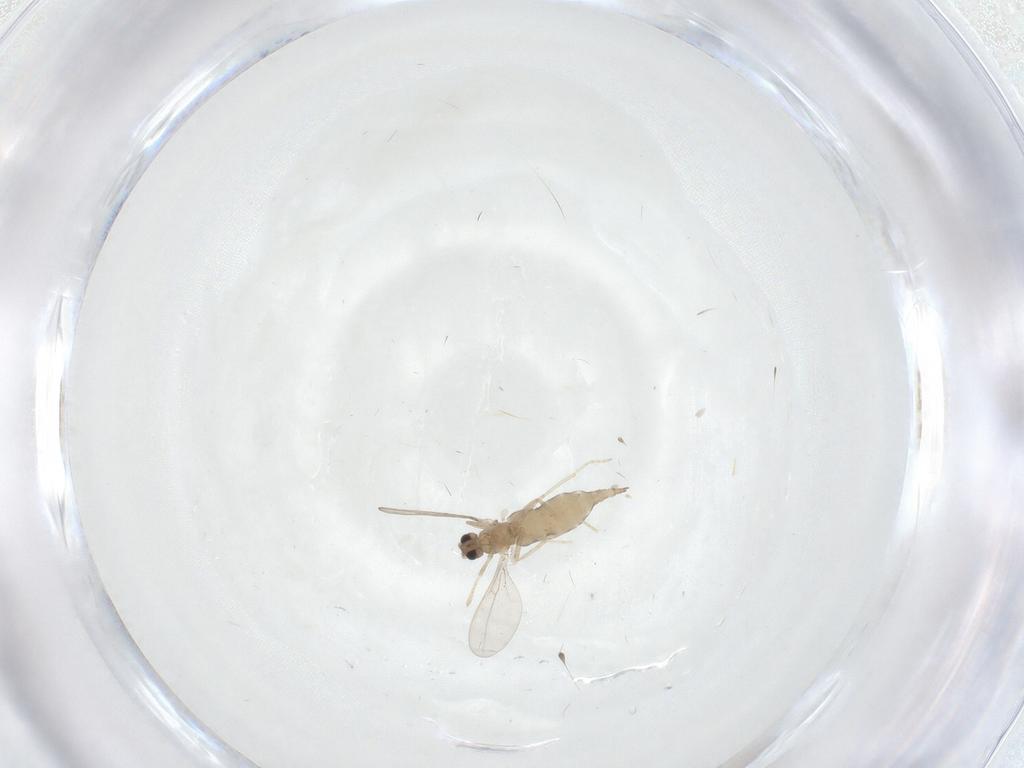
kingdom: Animalia
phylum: Arthropoda
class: Insecta
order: Diptera
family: Cecidomyiidae
